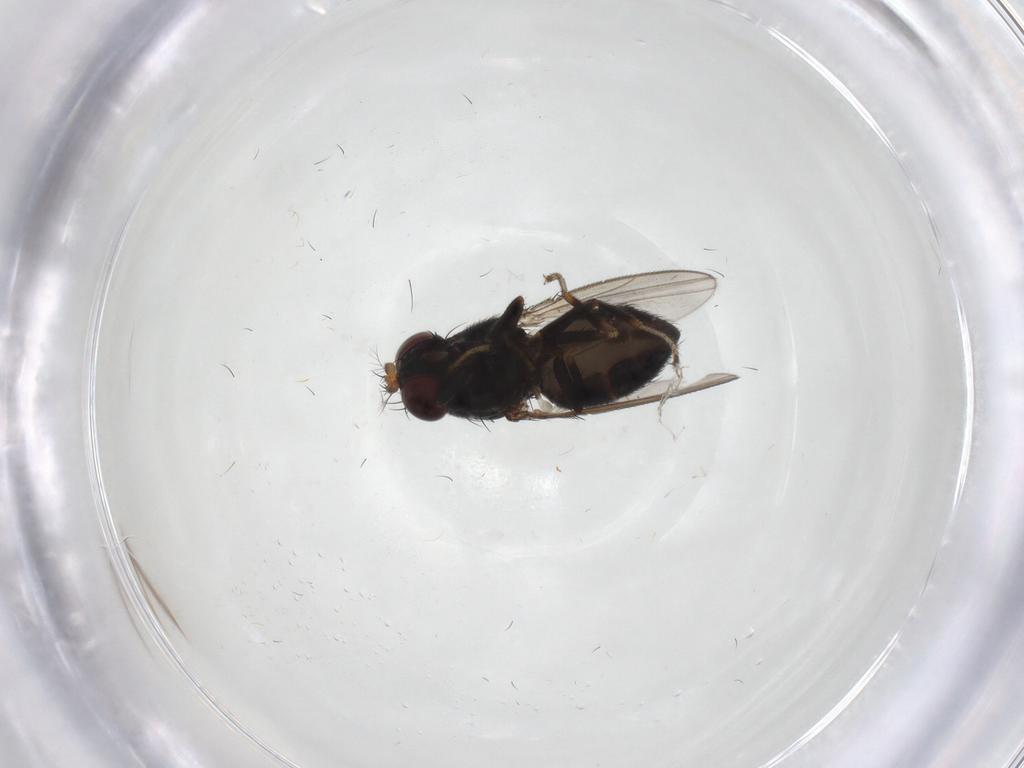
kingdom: Animalia
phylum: Arthropoda
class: Insecta
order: Diptera
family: Ephydridae
